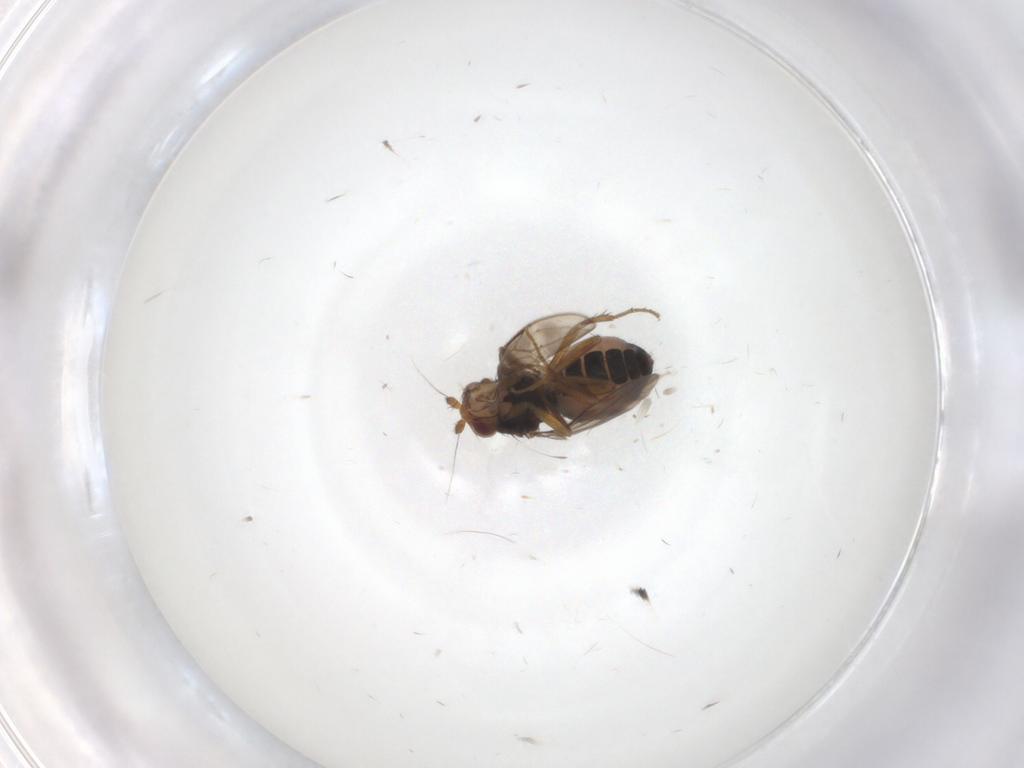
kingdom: Animalia
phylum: Arthropoda
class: Insecta
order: Diptera
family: Sphaeroceridae
